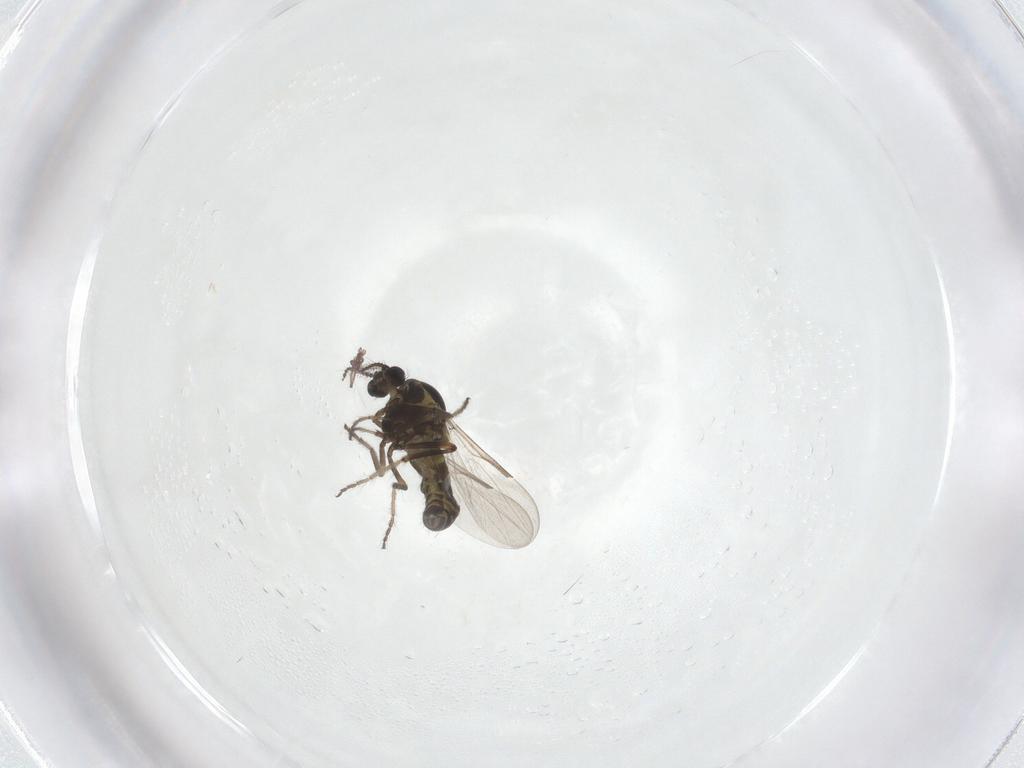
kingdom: Animalia
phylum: Arthropoda
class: Insecta
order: Diptera
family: Ceratopogonidae
